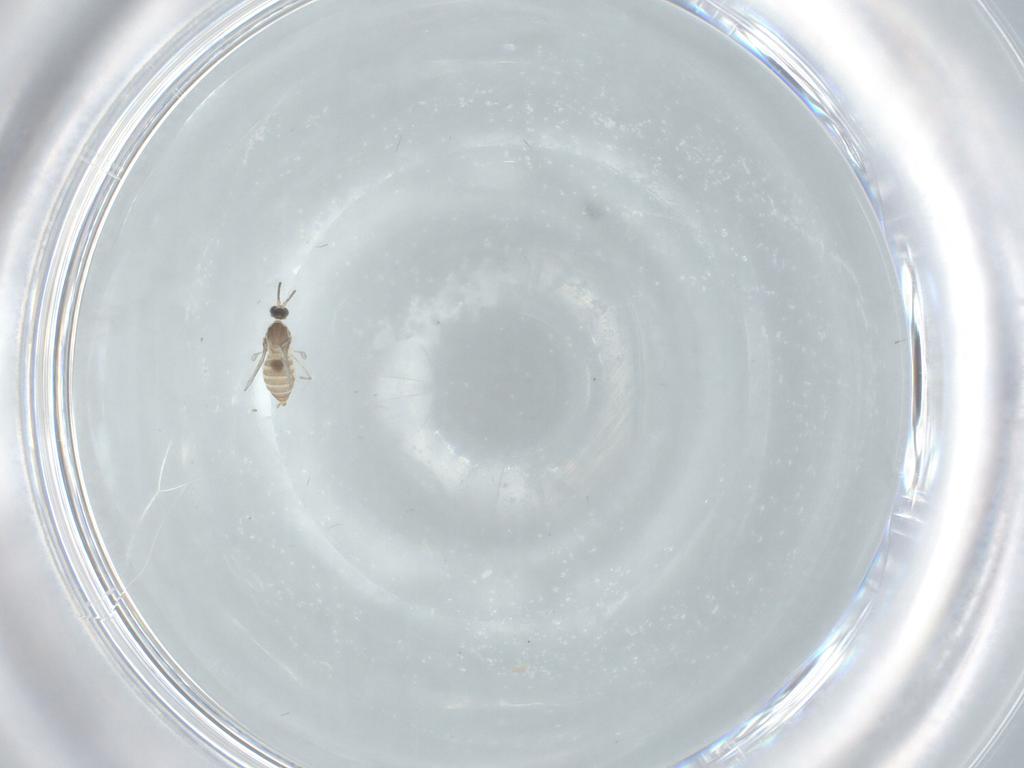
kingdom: Animalia
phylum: Arthropoda
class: Insecta
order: Diptera
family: Cecidomyiidae
